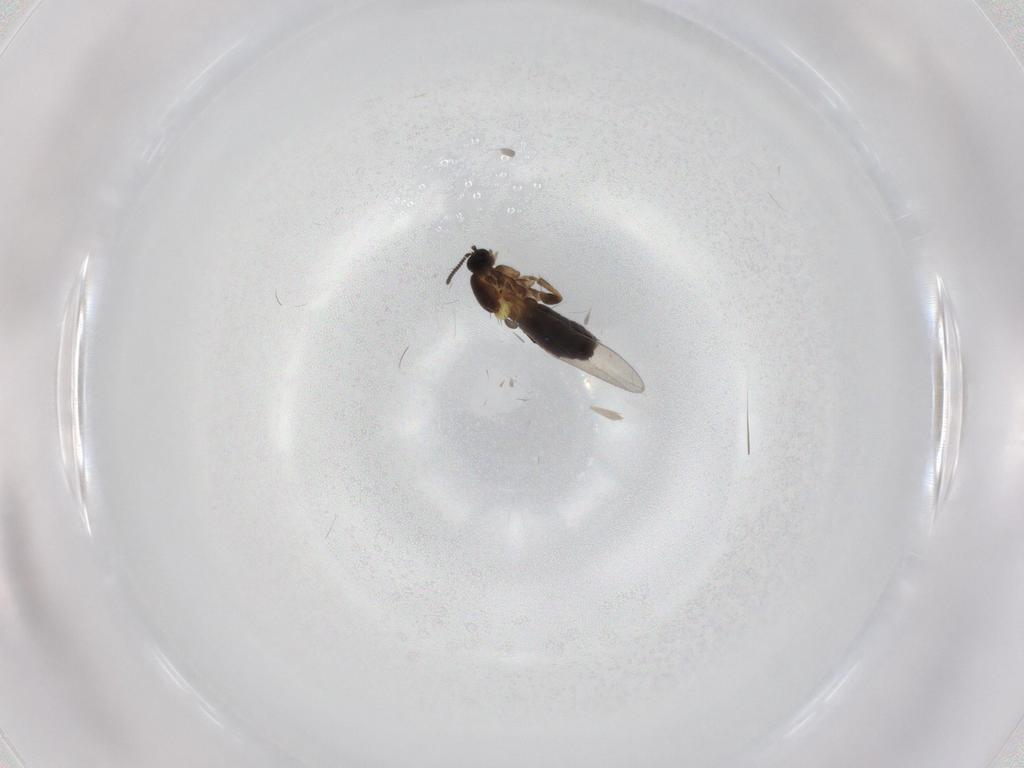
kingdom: Animalia
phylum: Arthropoda
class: Insecta
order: Diptera
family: Scatopsidae
